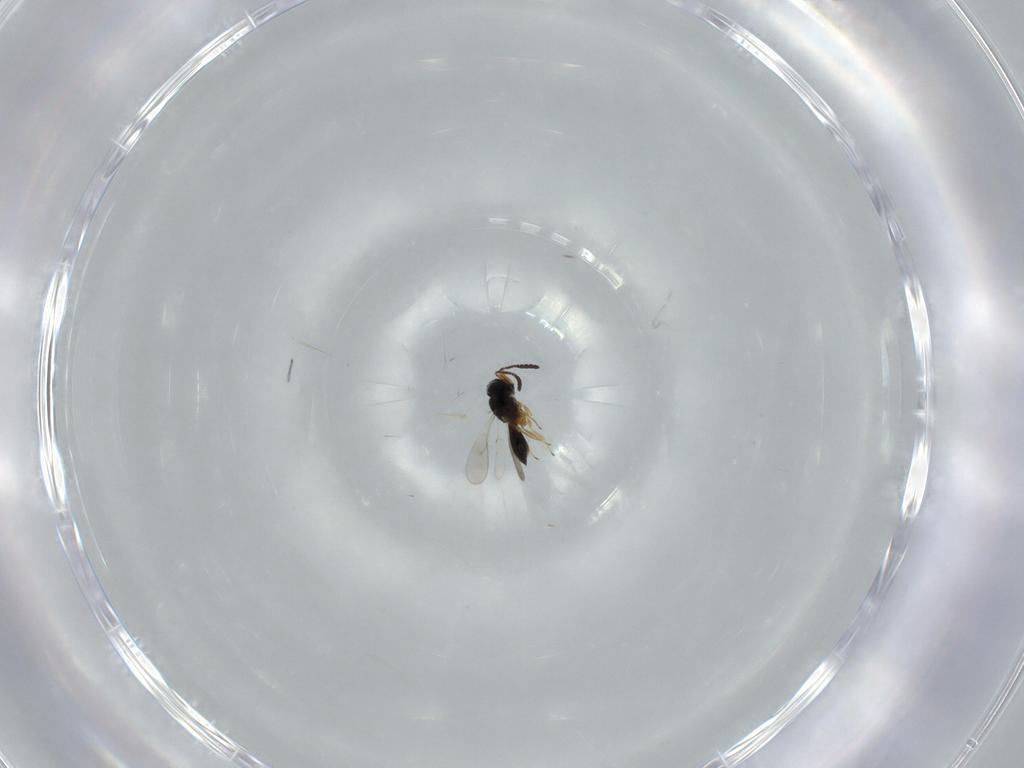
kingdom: Animalia
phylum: Arthropoda
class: Insecta
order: Hymenoptera
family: Scelionidae
